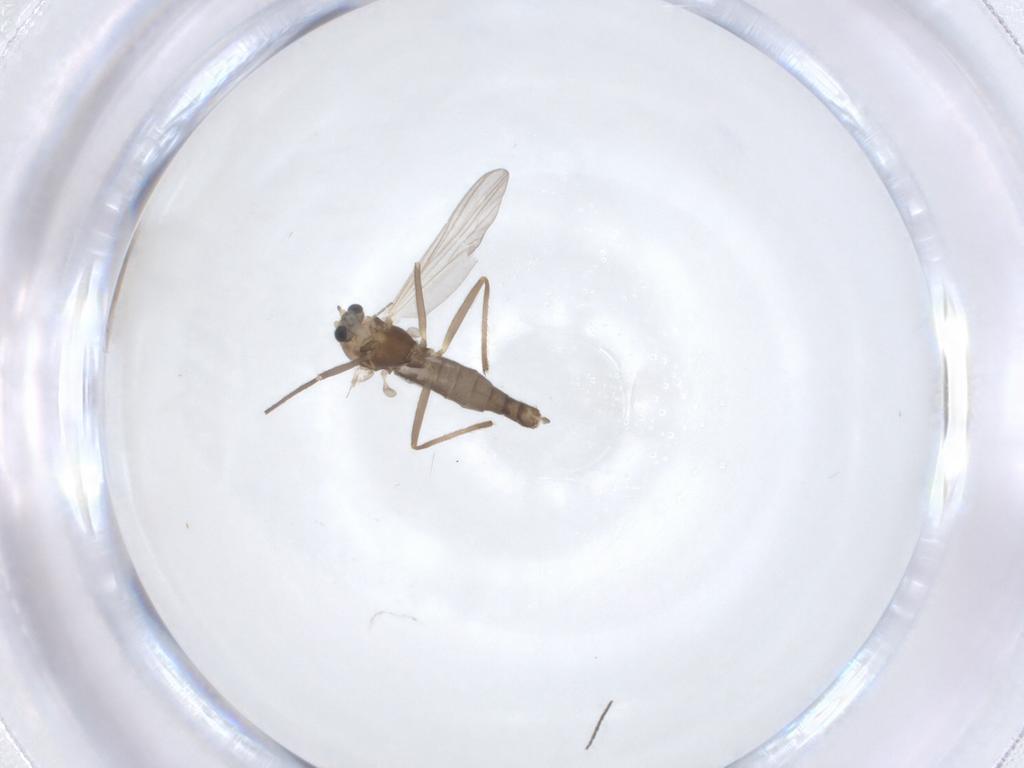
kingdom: Animalia
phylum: Arthropoda
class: Insecta
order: Diptera
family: Chironomidae
